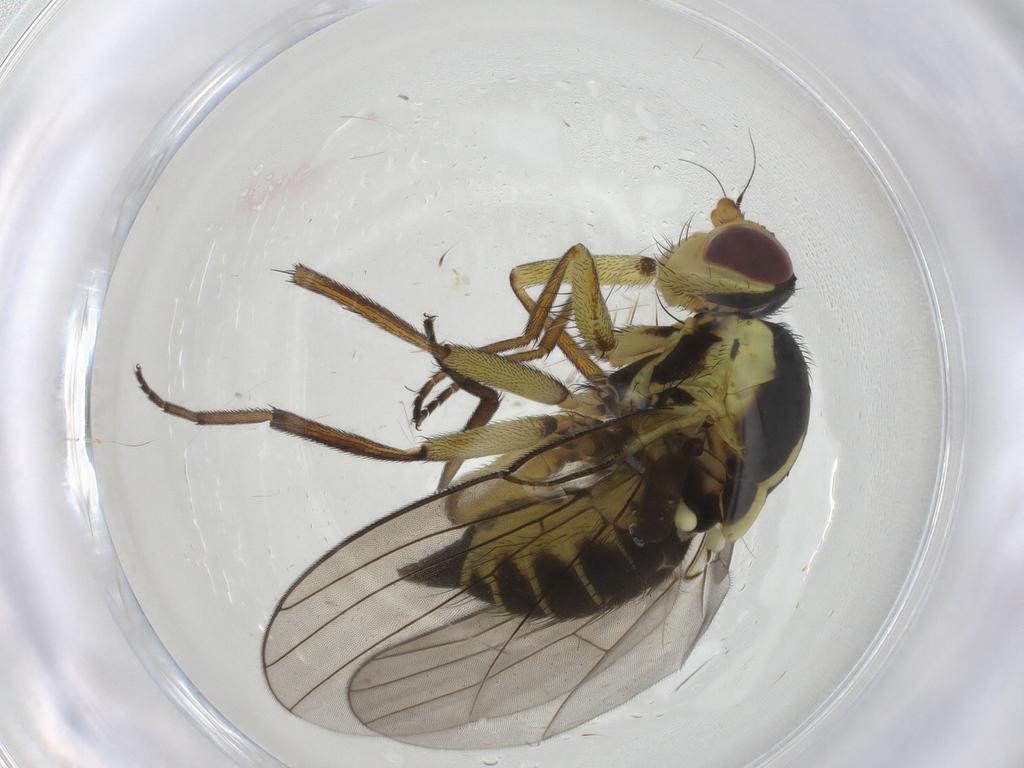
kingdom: Animalia
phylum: Arthropoda
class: Insecta
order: Diptera
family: Agromyzidae
